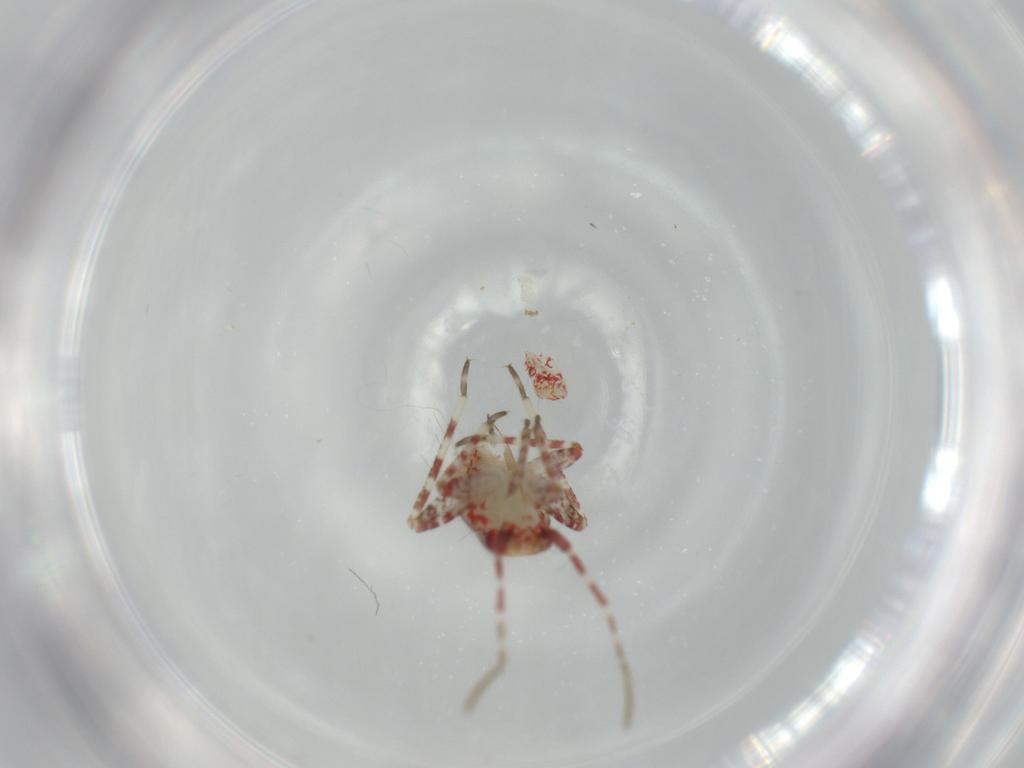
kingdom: Animalia
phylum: Arthropoda
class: Insecta
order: Hemiptera
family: Miridae
